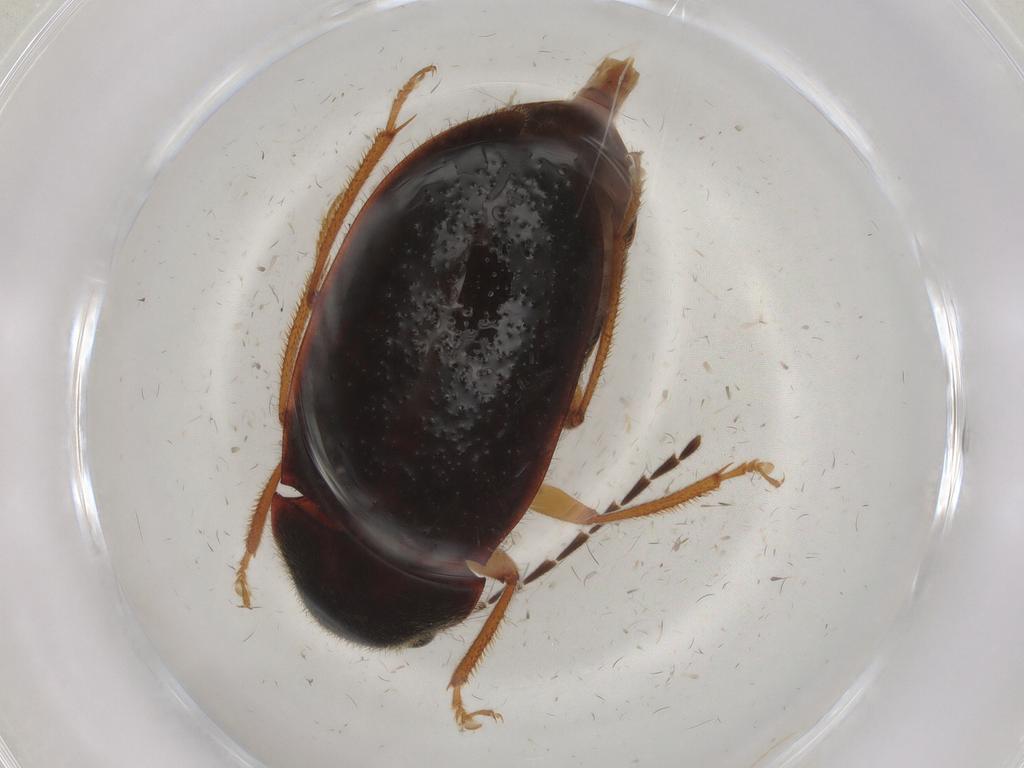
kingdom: Animalia
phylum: Arthropoda
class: Insecta
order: Coleoptera
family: Ptilodactylidae
